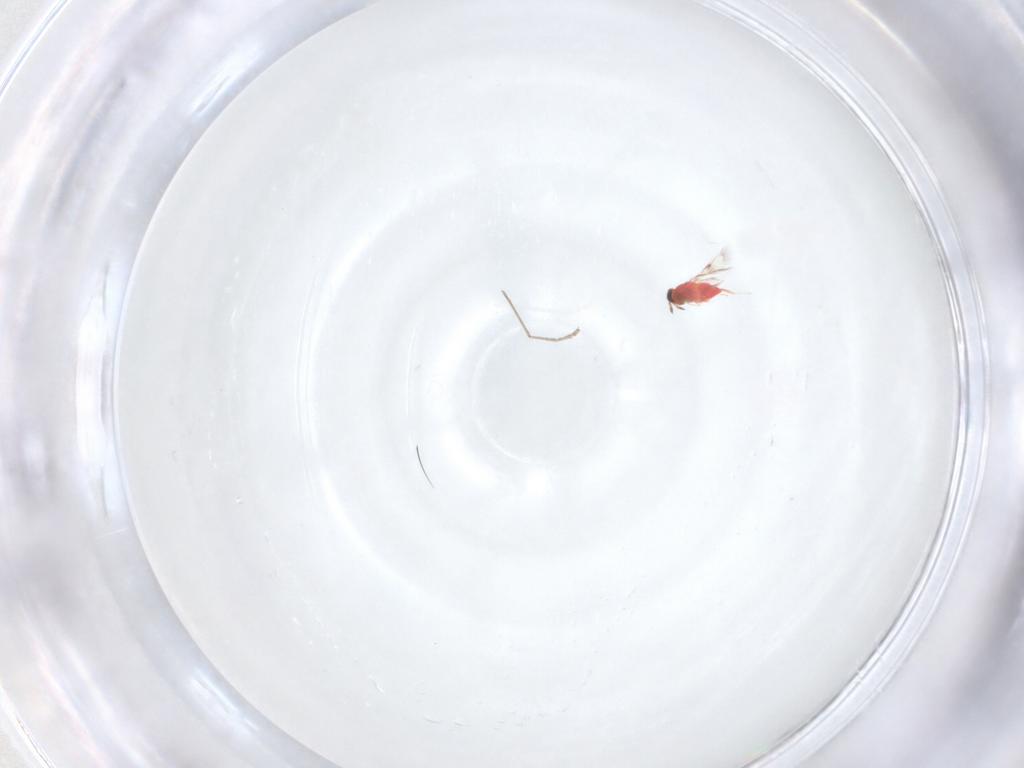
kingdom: Animalia
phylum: Arthropoda
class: Insecta
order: Diptera
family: Cecidomyiidae
